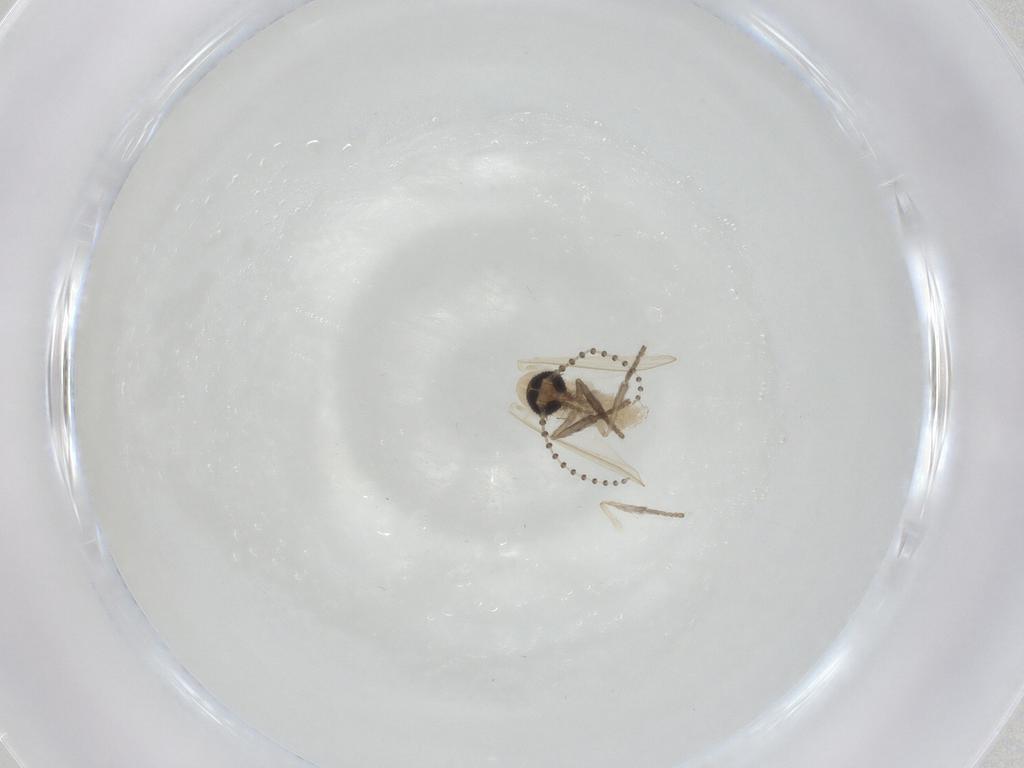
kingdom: Animalia
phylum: Arthropoda
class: Insecta
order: Diptera
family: Psychodidae
